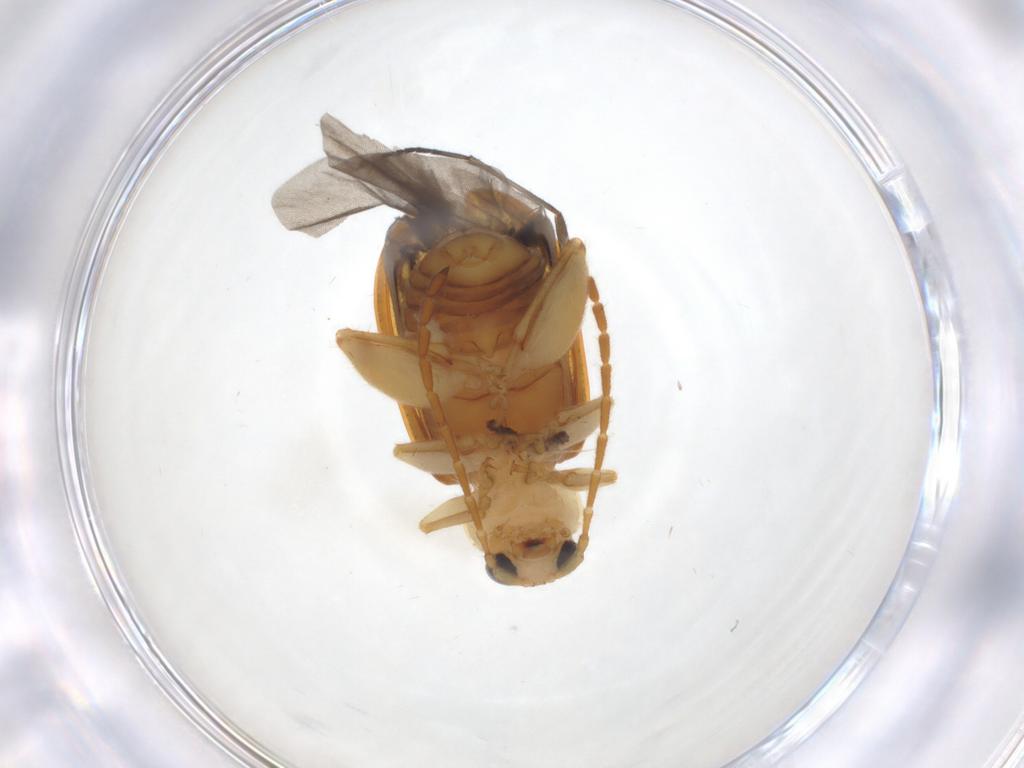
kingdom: Animalia
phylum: Arthropoda
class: Insecta
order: Coleoptera
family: Chrysomelidae
